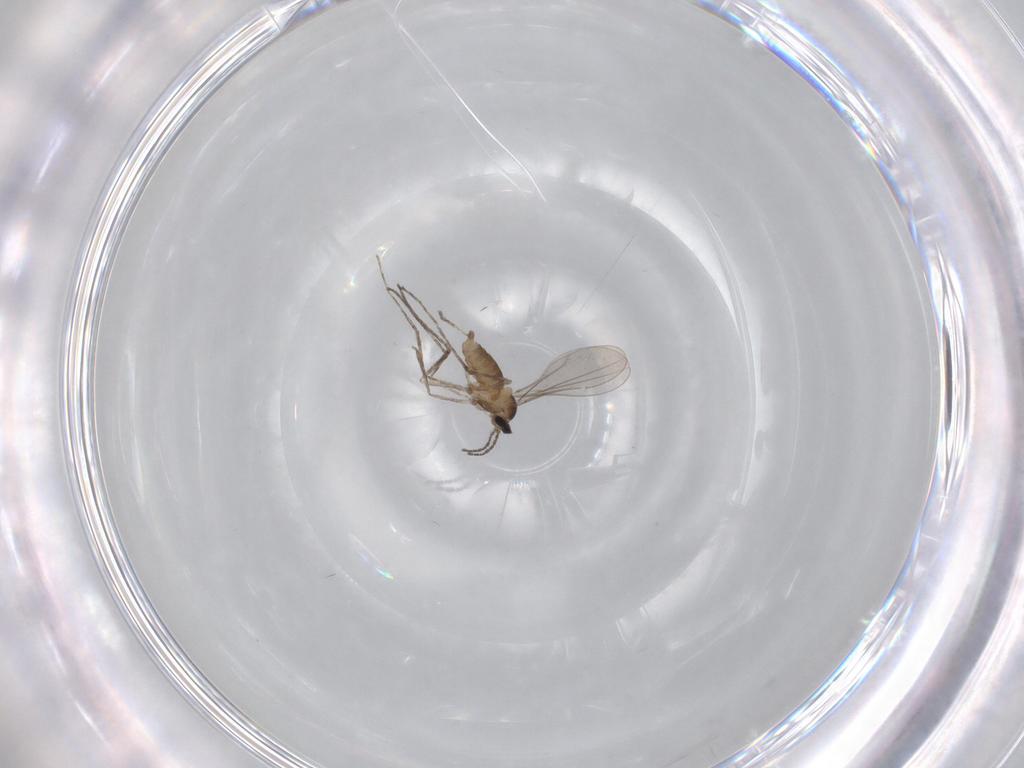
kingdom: Animalia
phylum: Arthropoda
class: Insecta
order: Diptera
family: Cecidomyiidae
